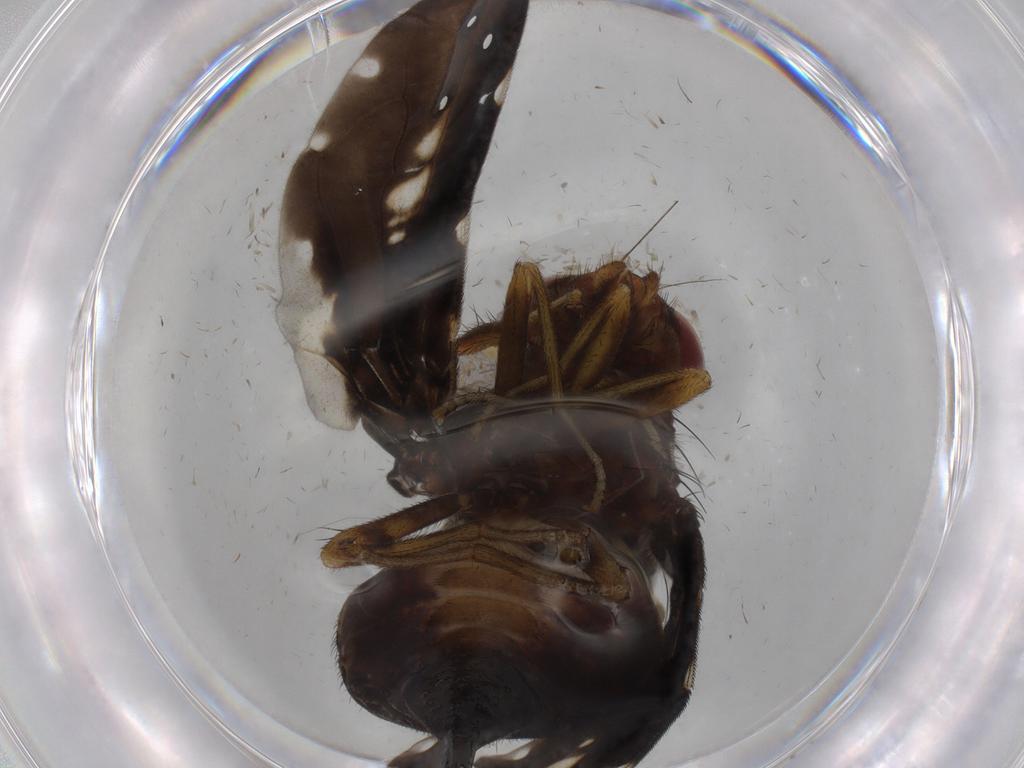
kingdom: Animalia
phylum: Arthropoda
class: Insecta
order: Diptera
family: Ulidiidae
